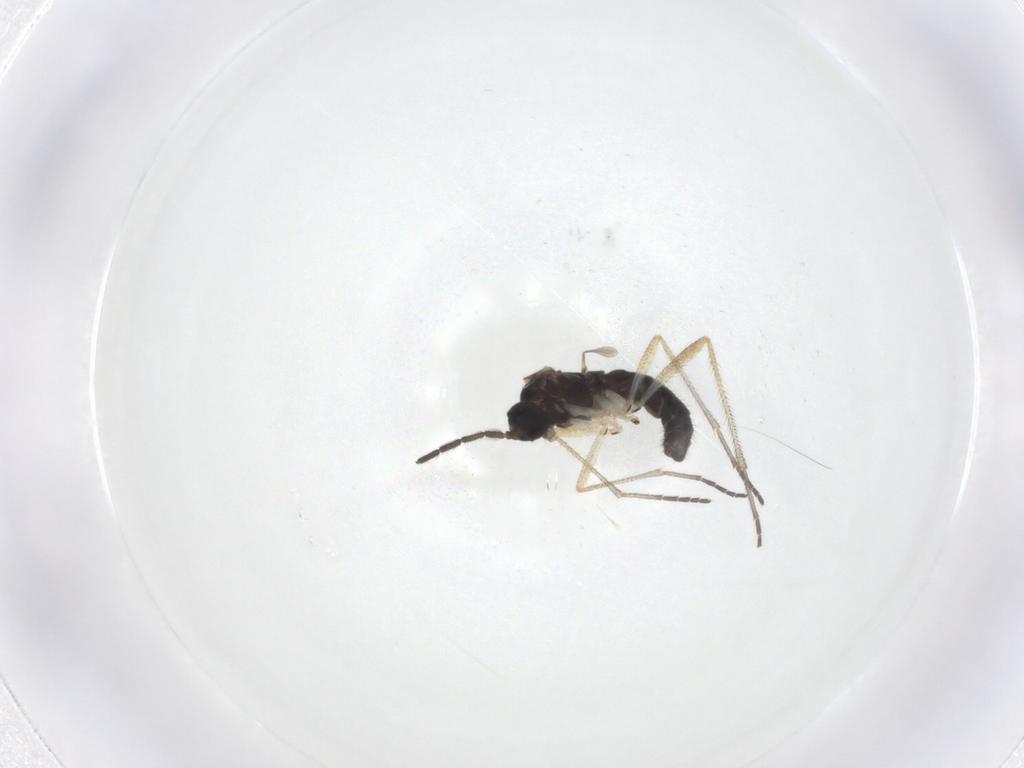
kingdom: Animalia
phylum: Arthropoda
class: Insecta
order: Diptera
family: Sciaridae
